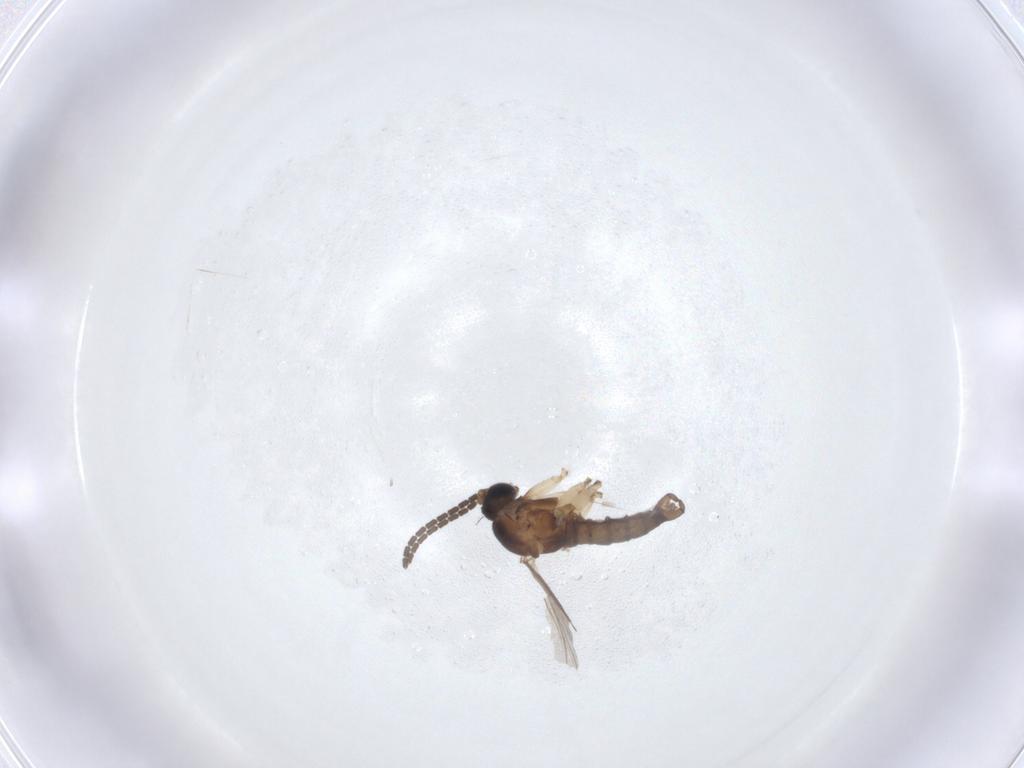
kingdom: Animalia
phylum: Arthropoda
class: Insecta
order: Diptera
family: Sciaridae
